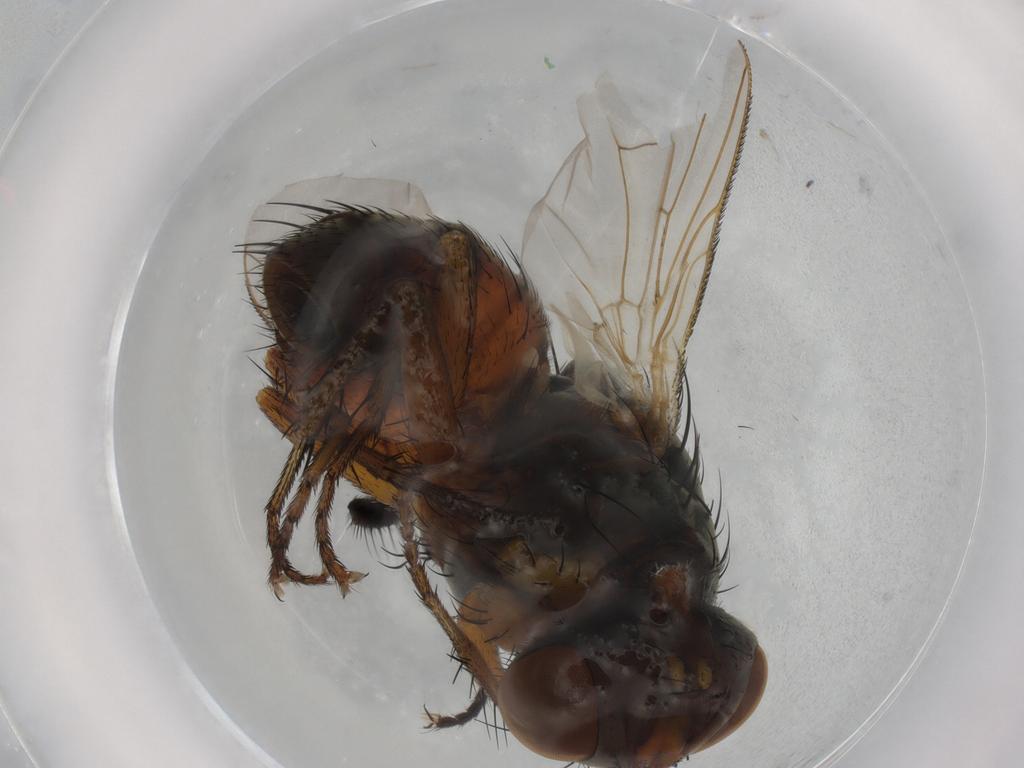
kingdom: Animalia
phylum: Arthropoda
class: Insecta
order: Diptera
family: Sarcophagidae
